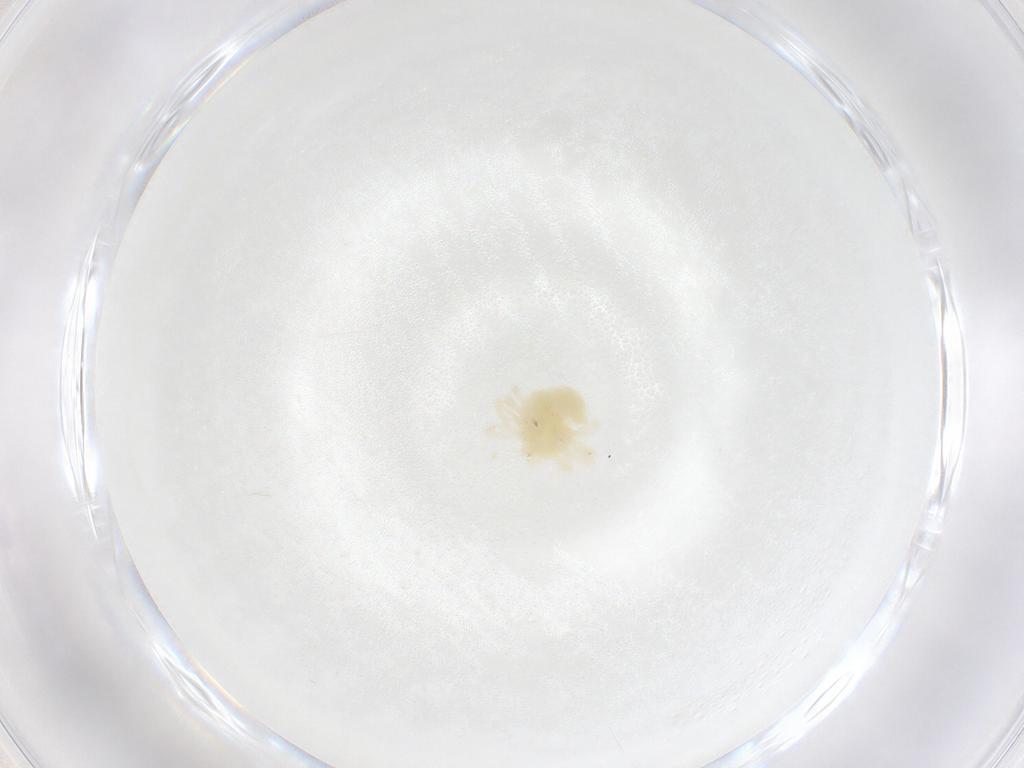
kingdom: Animalia
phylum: Arthropoda
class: Arachnida
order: Trombidiformes
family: Anystidae
